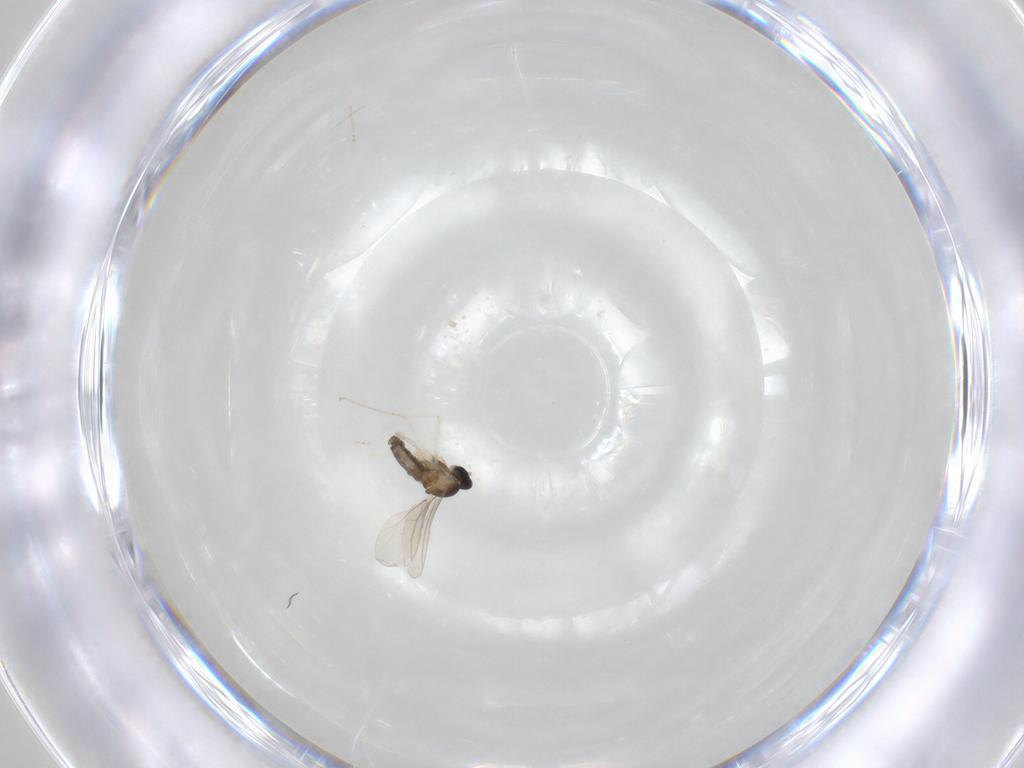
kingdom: Animalia
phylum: Arthropoda
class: Insecta
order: Diptera
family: Cecidomyiidae
